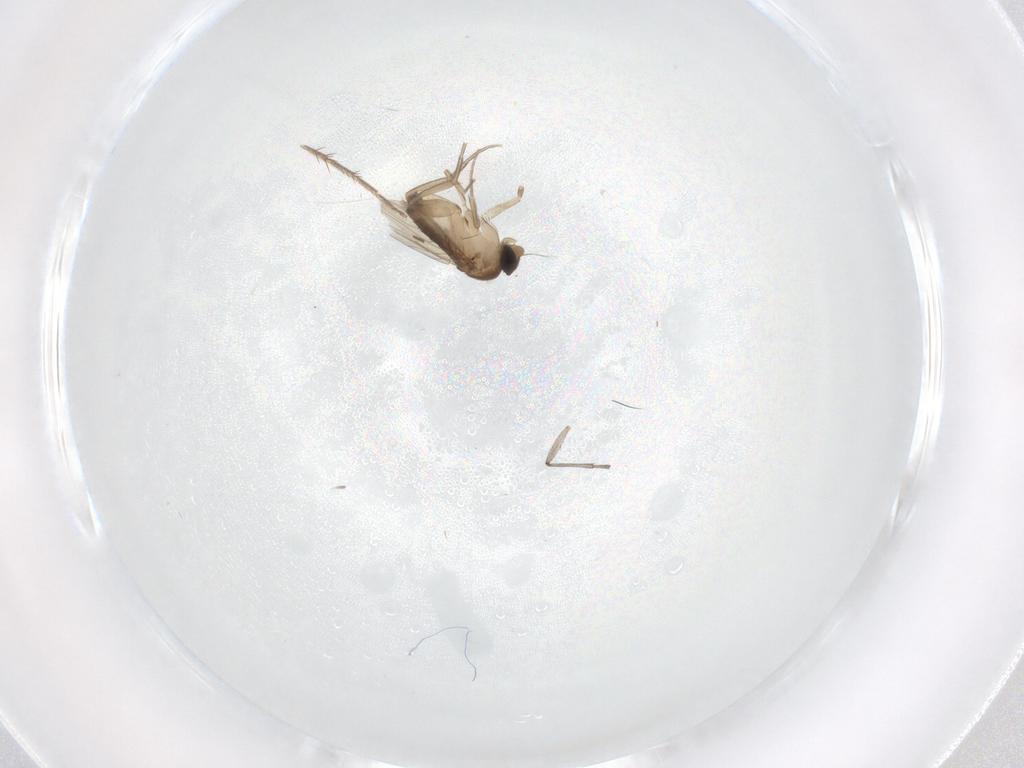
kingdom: Animalia
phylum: Arthropoda
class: Insecta
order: Diptera
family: Phoridae
